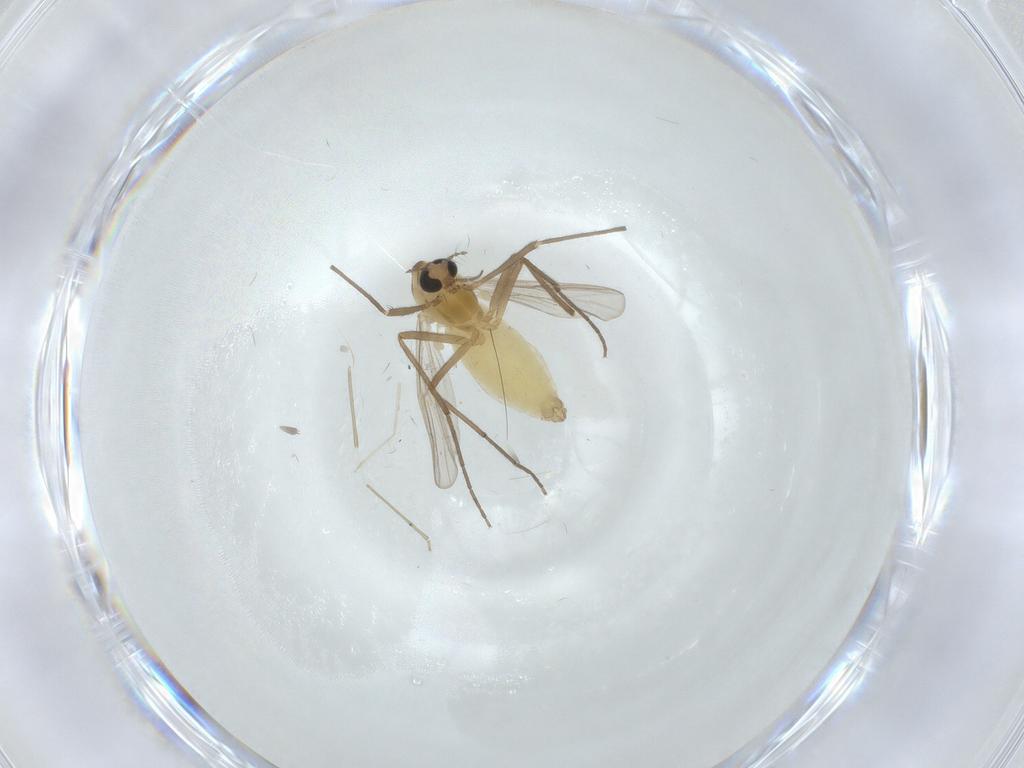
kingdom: Animalia
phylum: Arthropoda
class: Insecta
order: Diptera
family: Chironomidae
